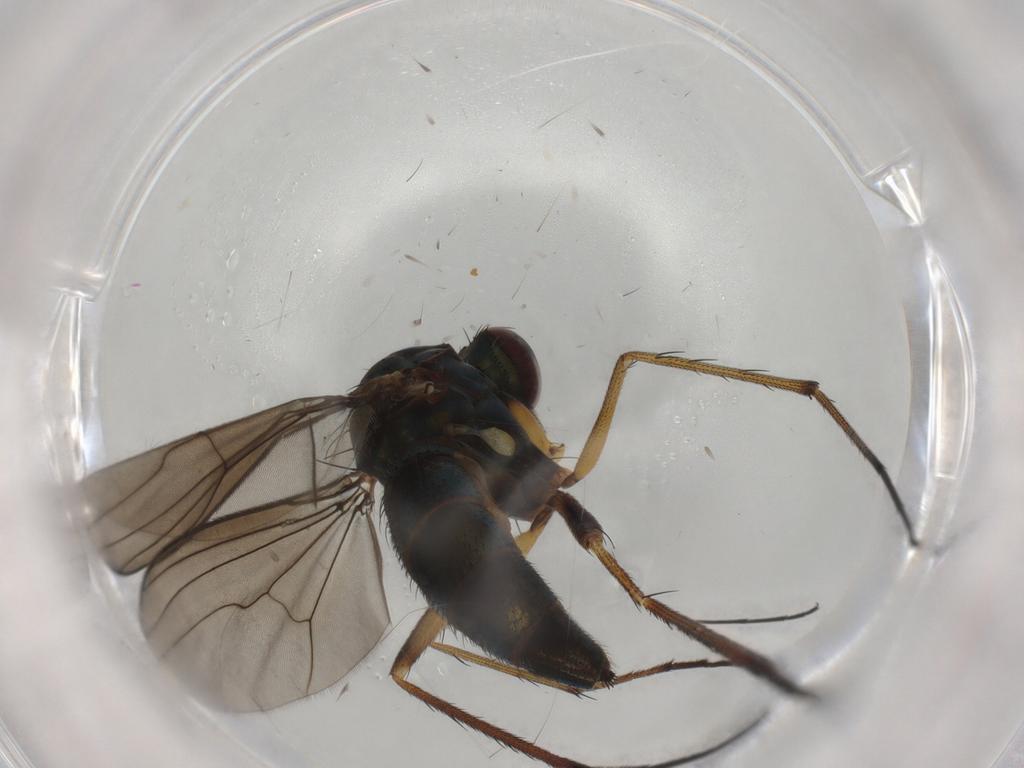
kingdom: Animalia
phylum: Arthropoda
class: Insecta
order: Diptera
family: Dolichopodidae
